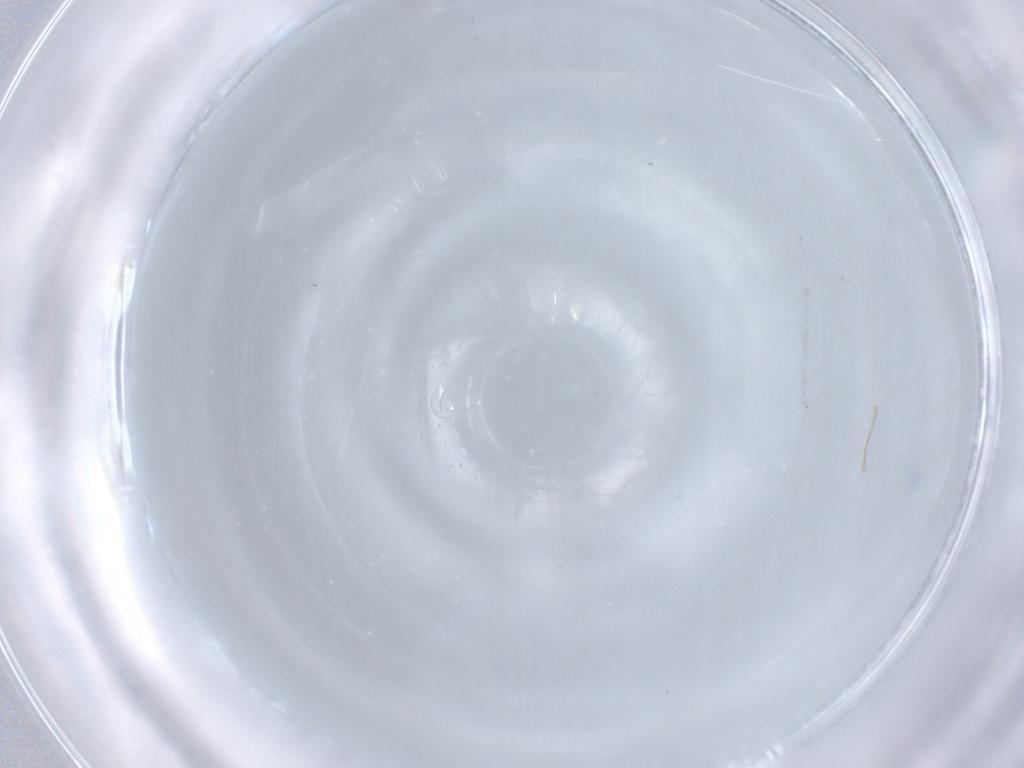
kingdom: Animalia
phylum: Arthropoda
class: Insecta
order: Diptera
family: Cecidomyiidae
